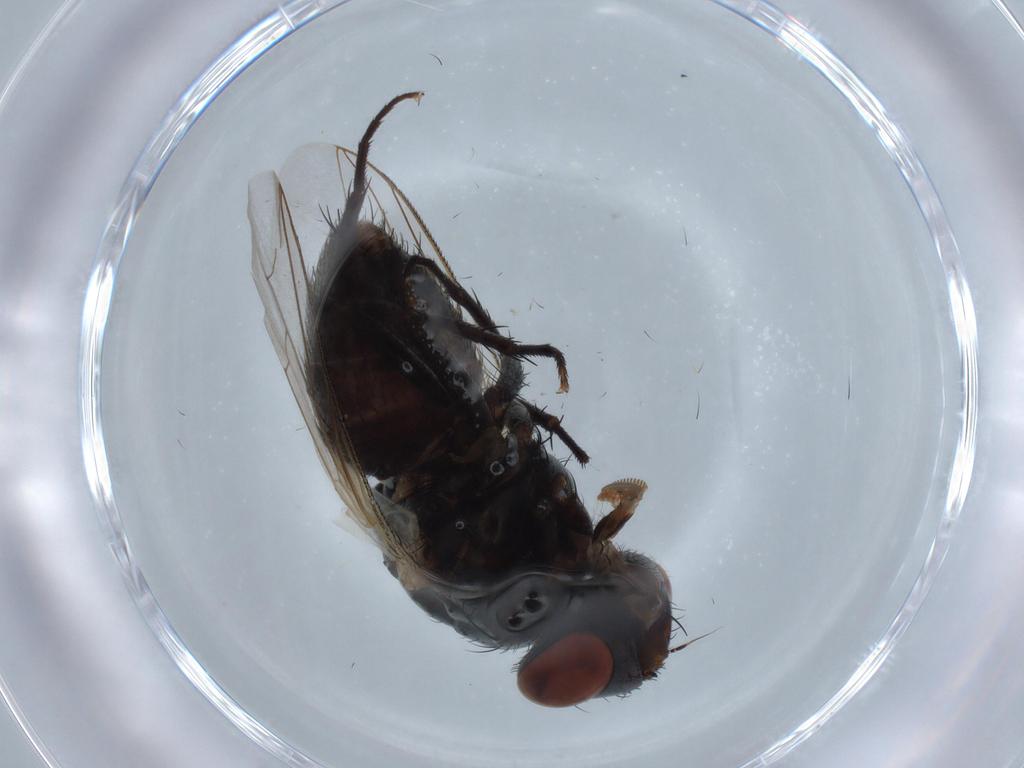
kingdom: Animalia
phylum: Arthropoda
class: Insecta
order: Diptera
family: Sarcophagidae
